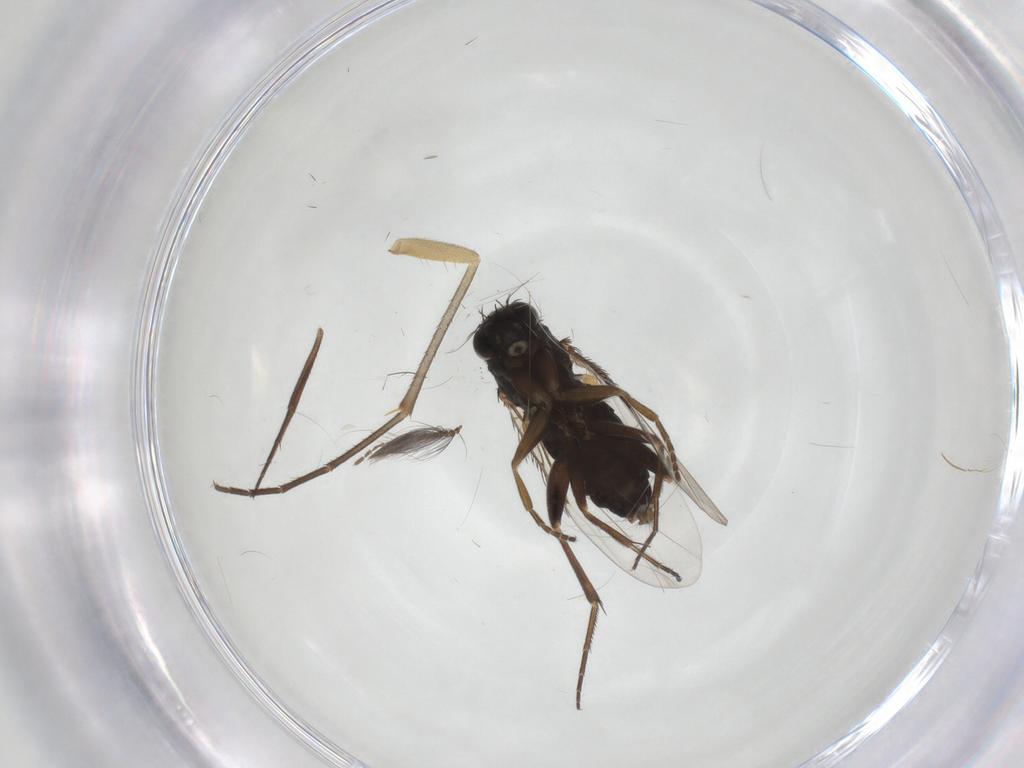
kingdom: Animalia
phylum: Arthropoda
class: Insecta
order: Diptera
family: Phoridae
